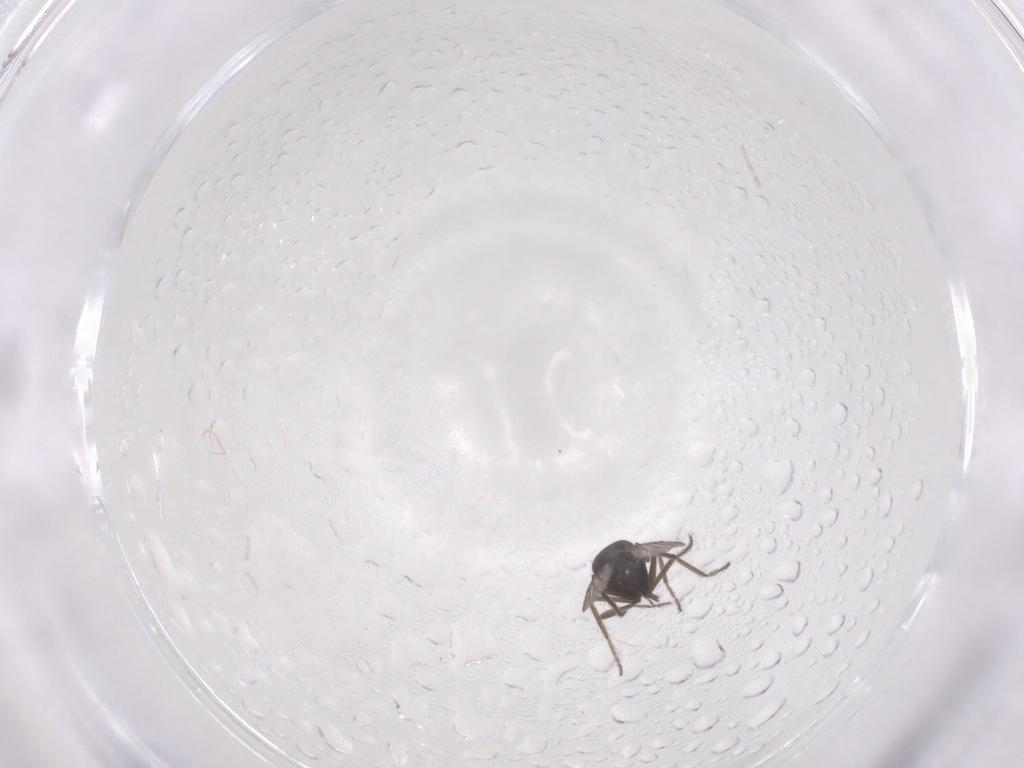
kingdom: Animalia
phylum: Arthropoda
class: Insecta
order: Diptera
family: Ceratopogonidae
